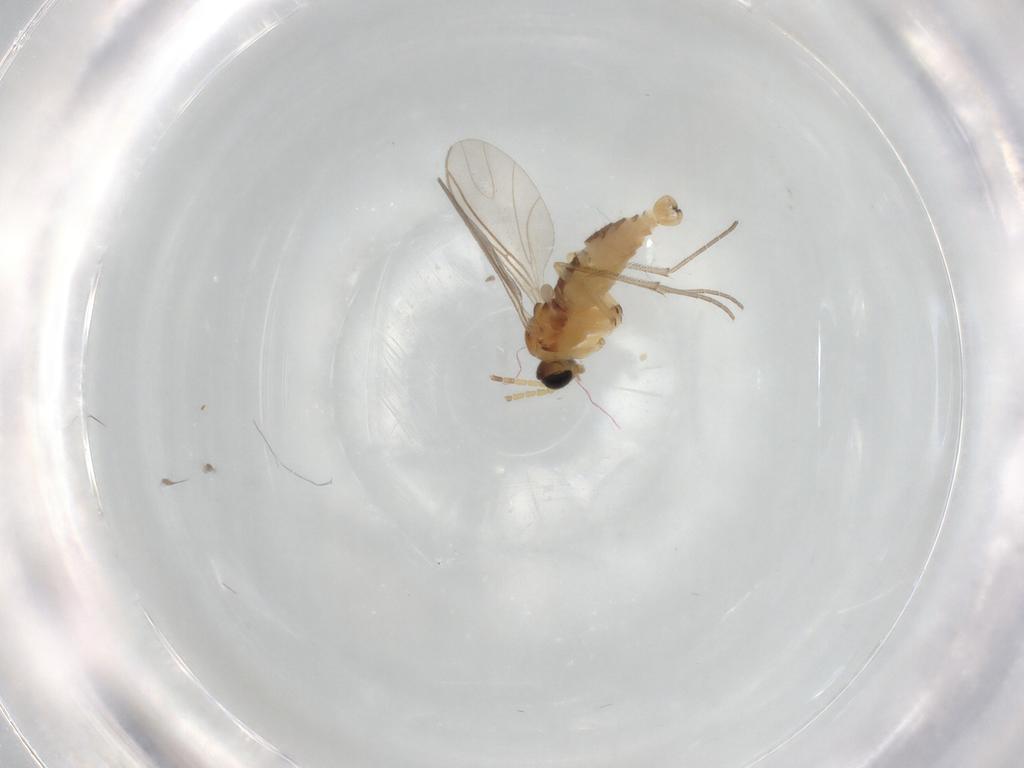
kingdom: Animalia
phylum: Arthropoda
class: Insecta
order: Diptera
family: Sciaridae
